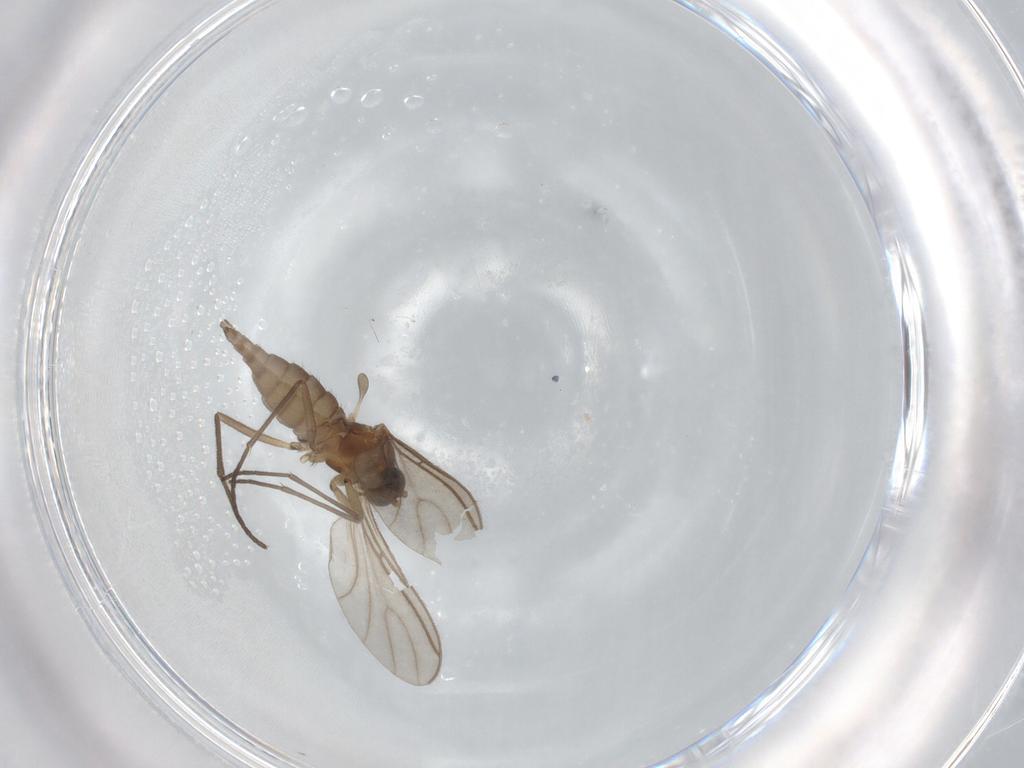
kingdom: Animalia
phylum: Arthropoda
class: Insecta
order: Diptera
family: Sciaridae
